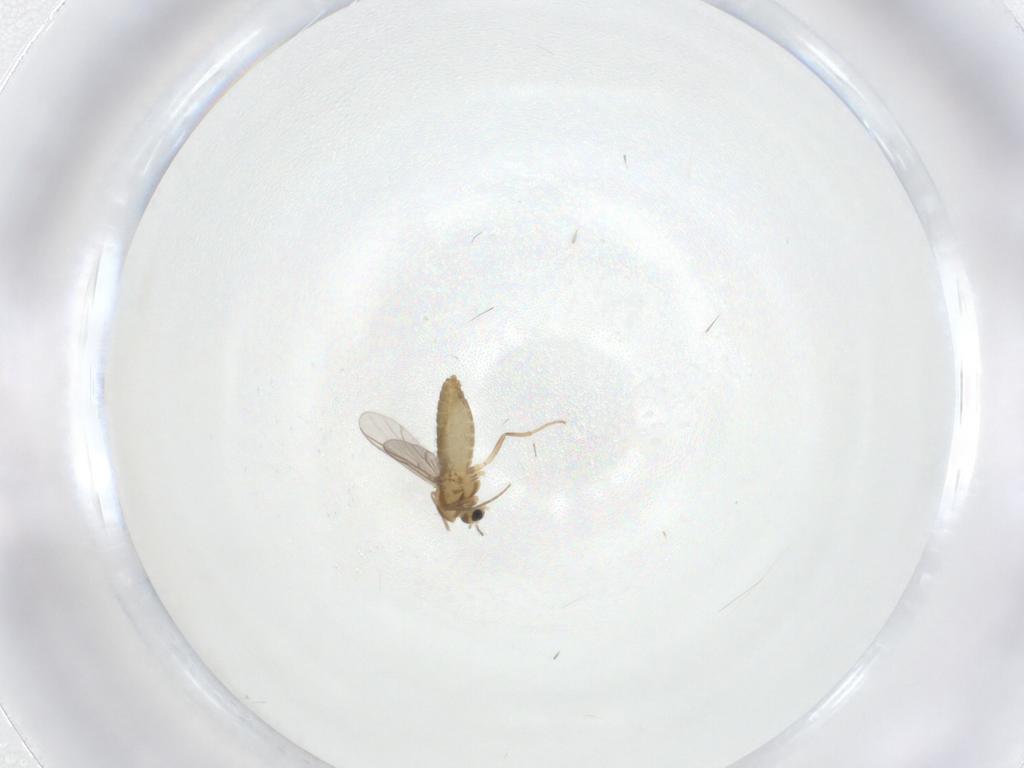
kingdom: Animalia
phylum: Arthropoda
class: Insecta
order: Diptera
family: Chironomidae
